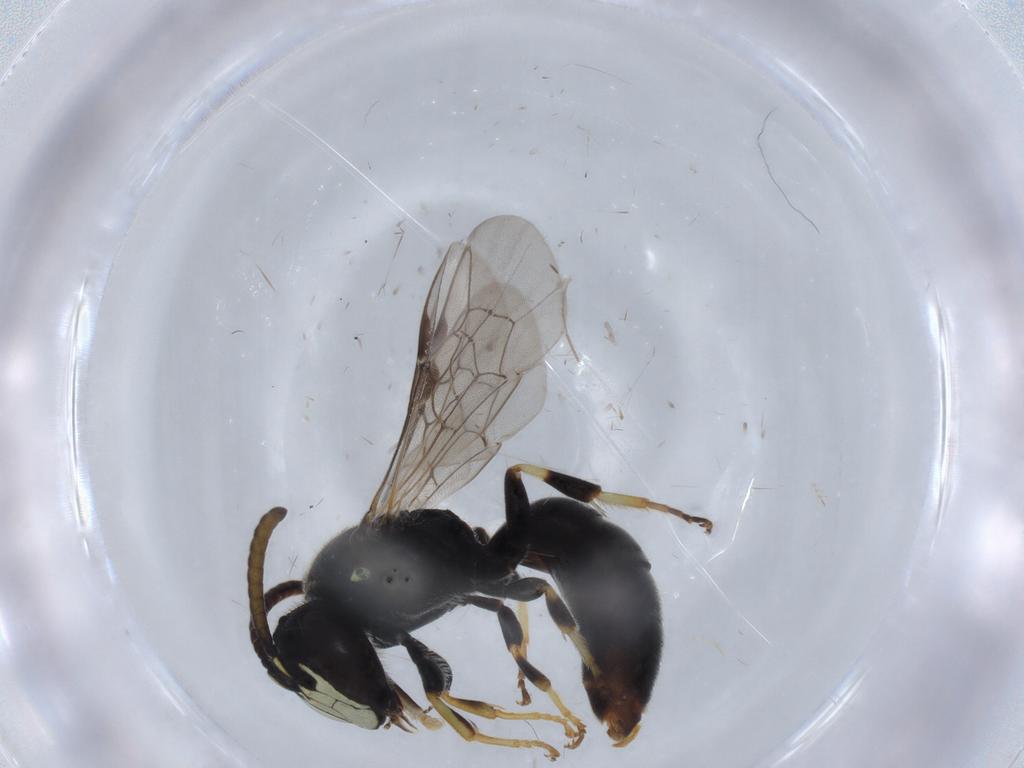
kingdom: Animalia
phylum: Arthropoda
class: Insecta
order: Hymenoptera
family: Colletidae
